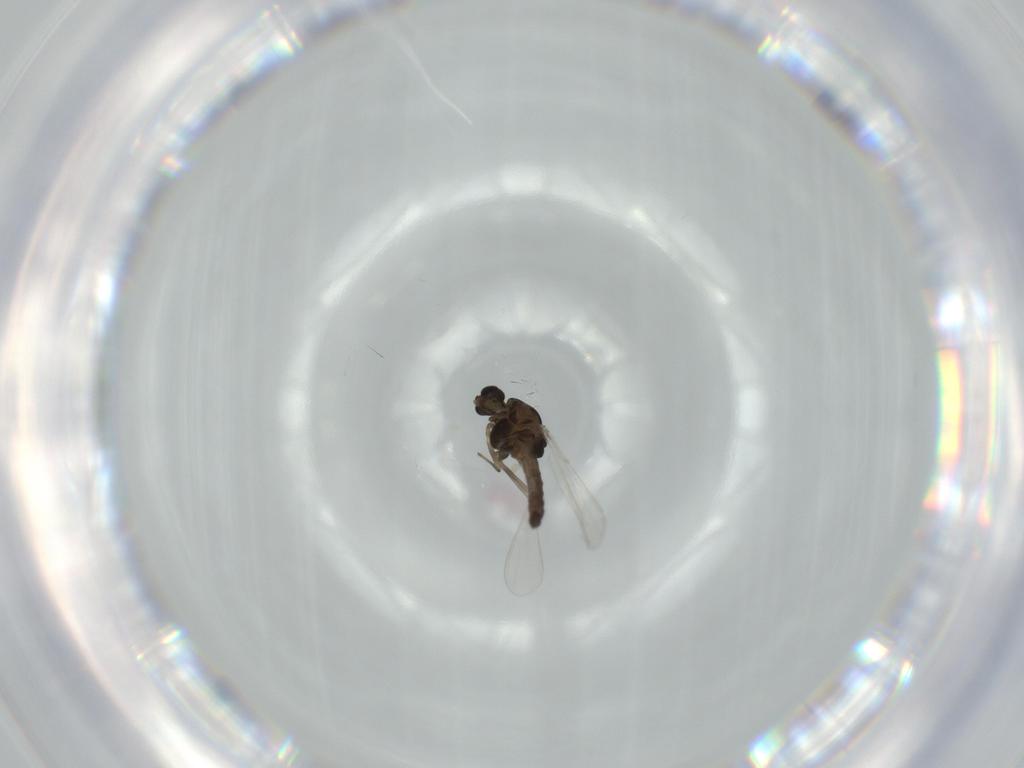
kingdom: Animalia
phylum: Arthropoda
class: Insecta
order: Diptera
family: Chironomidae
